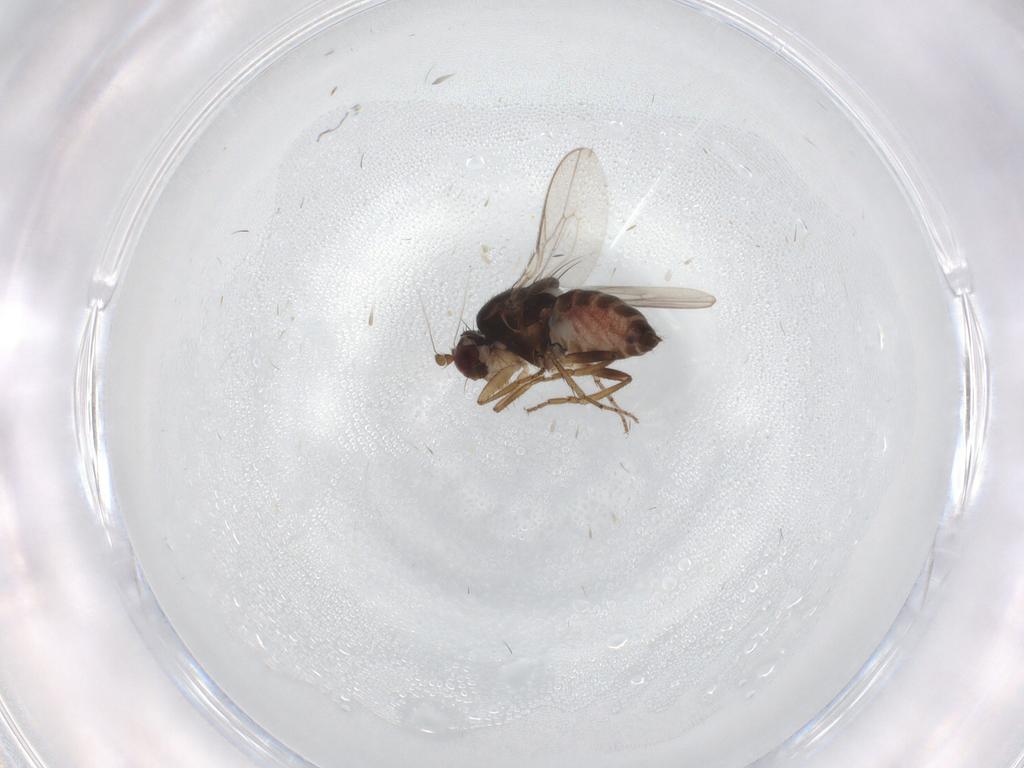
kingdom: Animalia
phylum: Arthropoda
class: Insecta
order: Diptera
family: Sphaeroceridae
